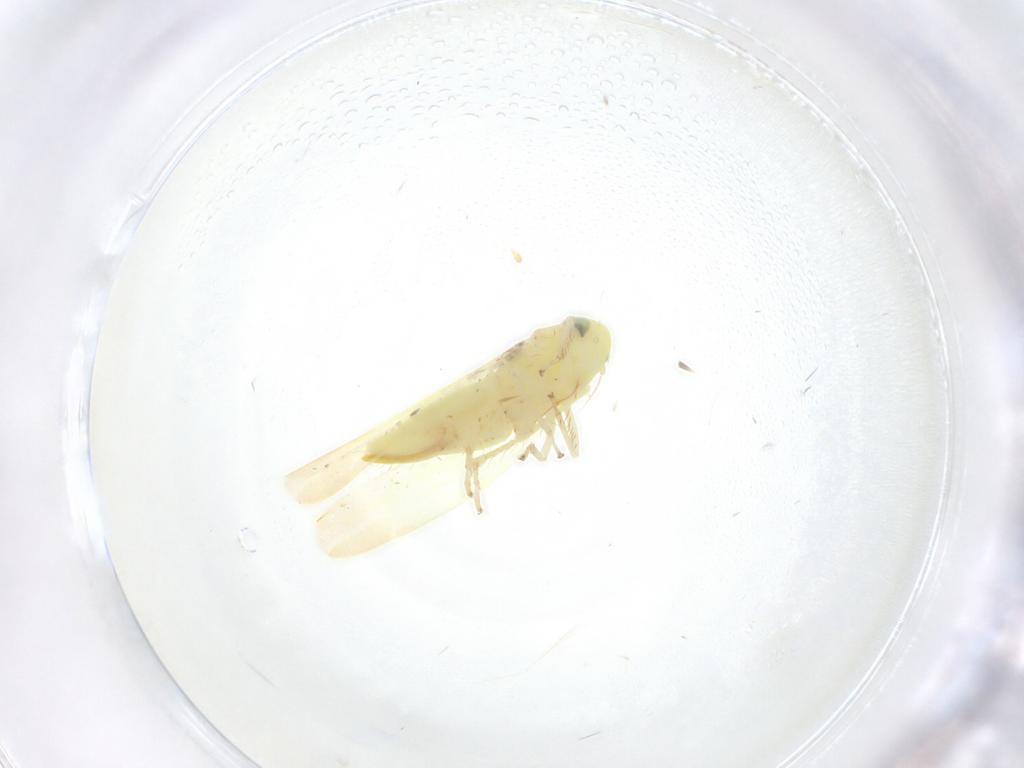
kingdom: Animalia
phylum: Arthropoda
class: Insecta
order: Hemiptera
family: Cicadellidae
